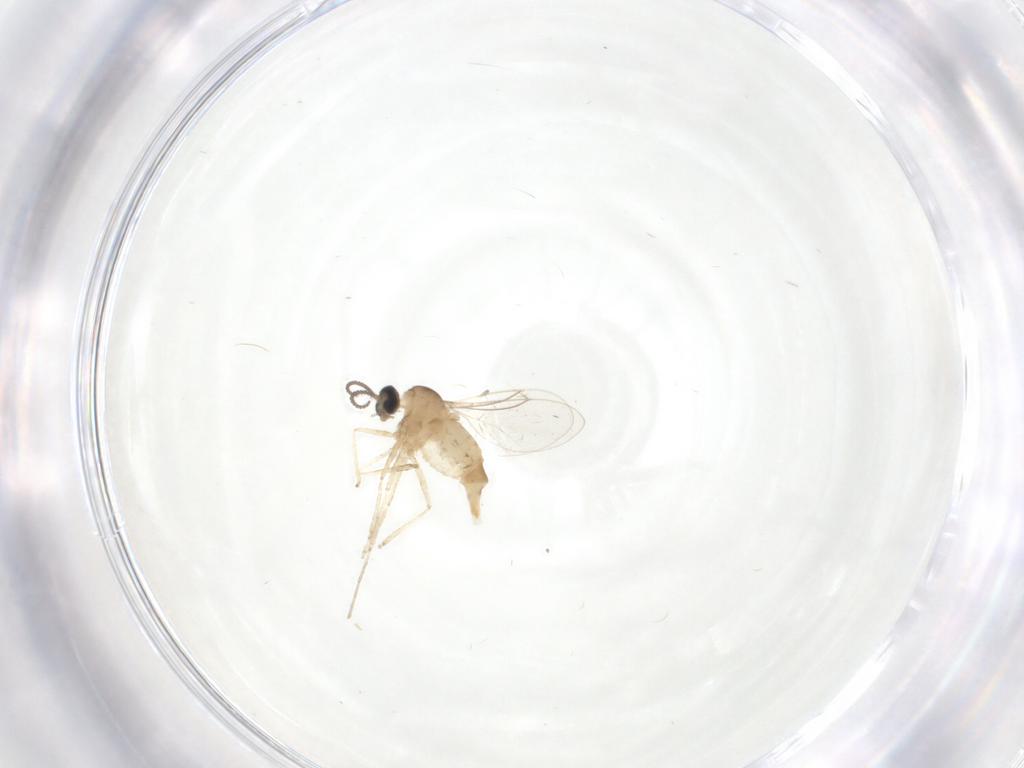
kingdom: Animalia
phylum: Arthropoda
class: Insecta
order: Diptera
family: Cecidomyiidae
